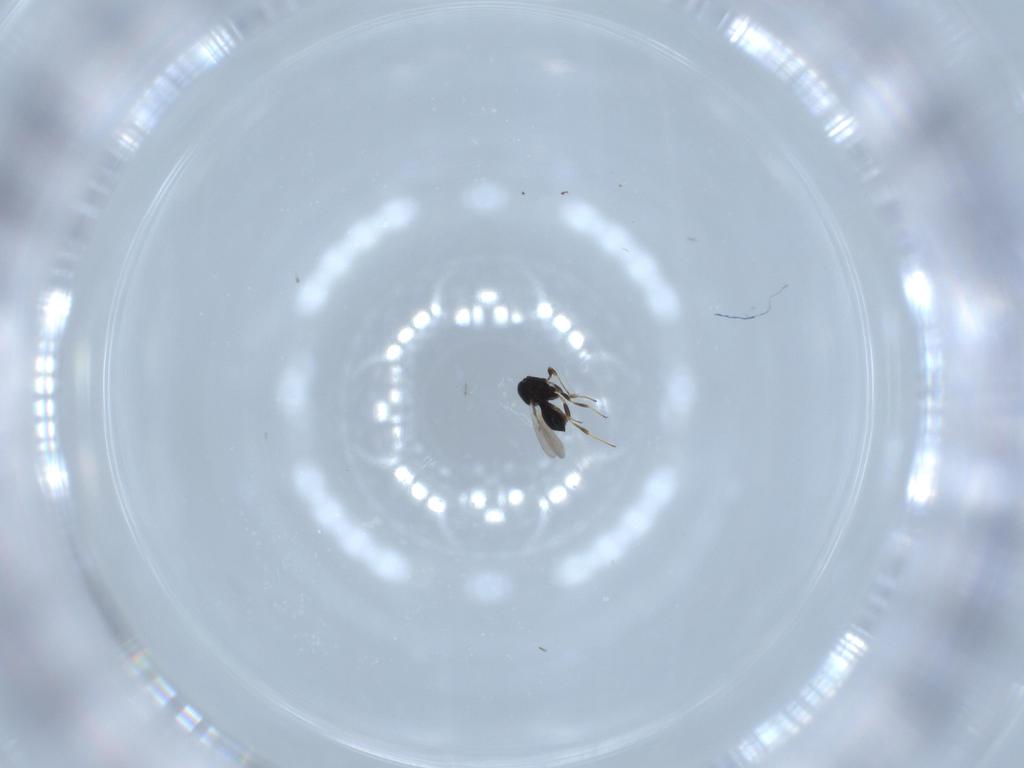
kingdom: Animalia
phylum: Arthropoda
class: Insecta
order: Hymenoptera
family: Scelionidae
